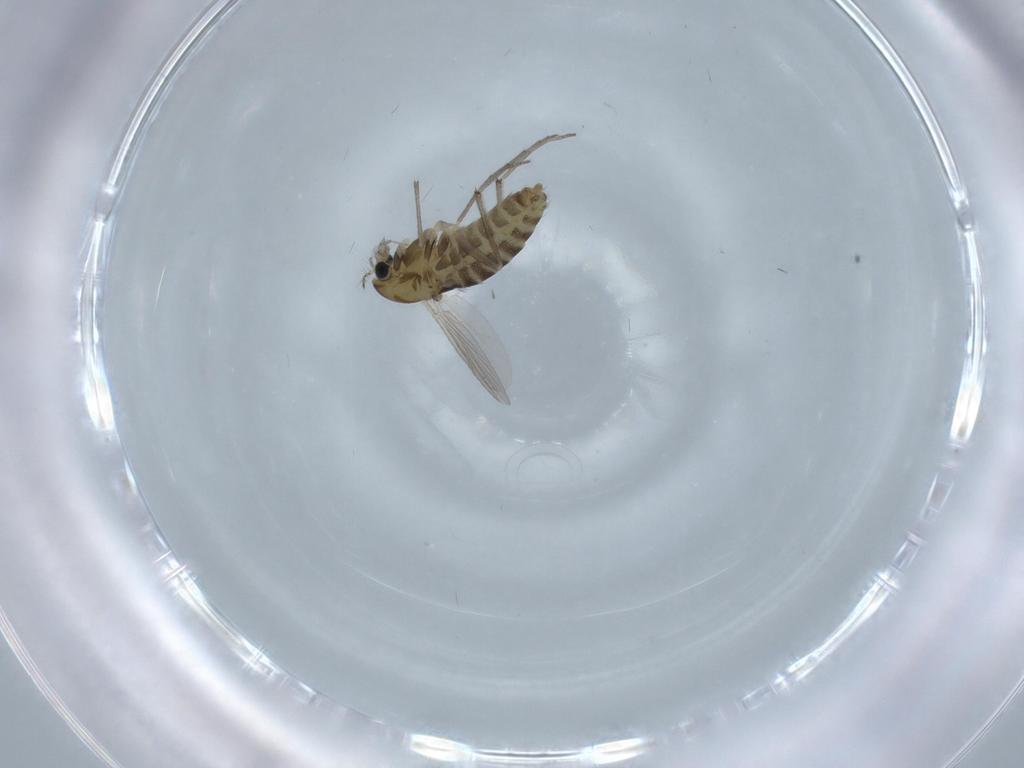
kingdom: Animalia
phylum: Arthropoda
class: Insecta
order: Diptera
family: Chironomidae
